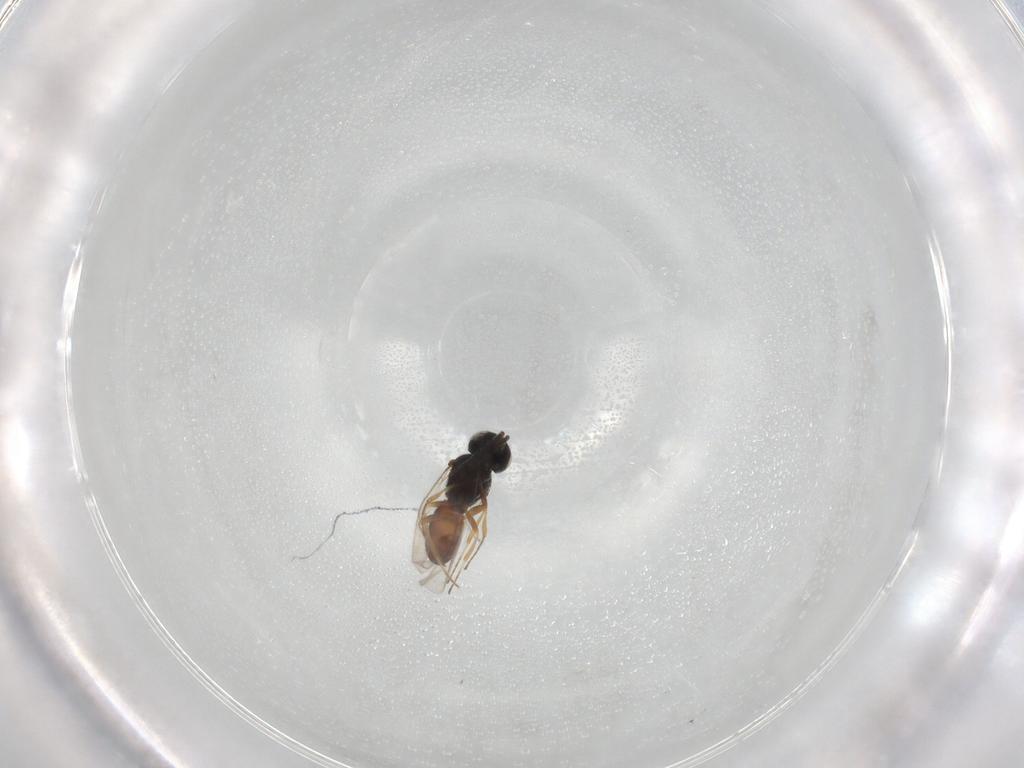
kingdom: Animalia
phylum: Arthropoda
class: Insecta
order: Hymenoptera
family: Scelionidae
